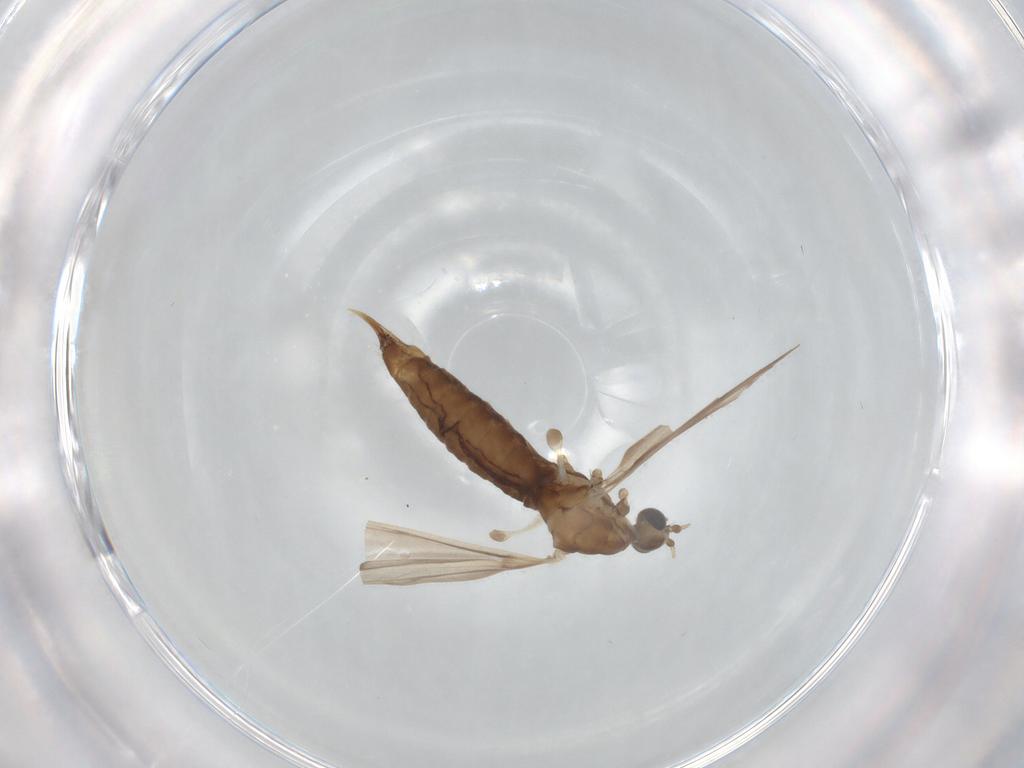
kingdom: Animalia
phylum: Arthropoda
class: Insecta
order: Diptera
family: Limoniidae
